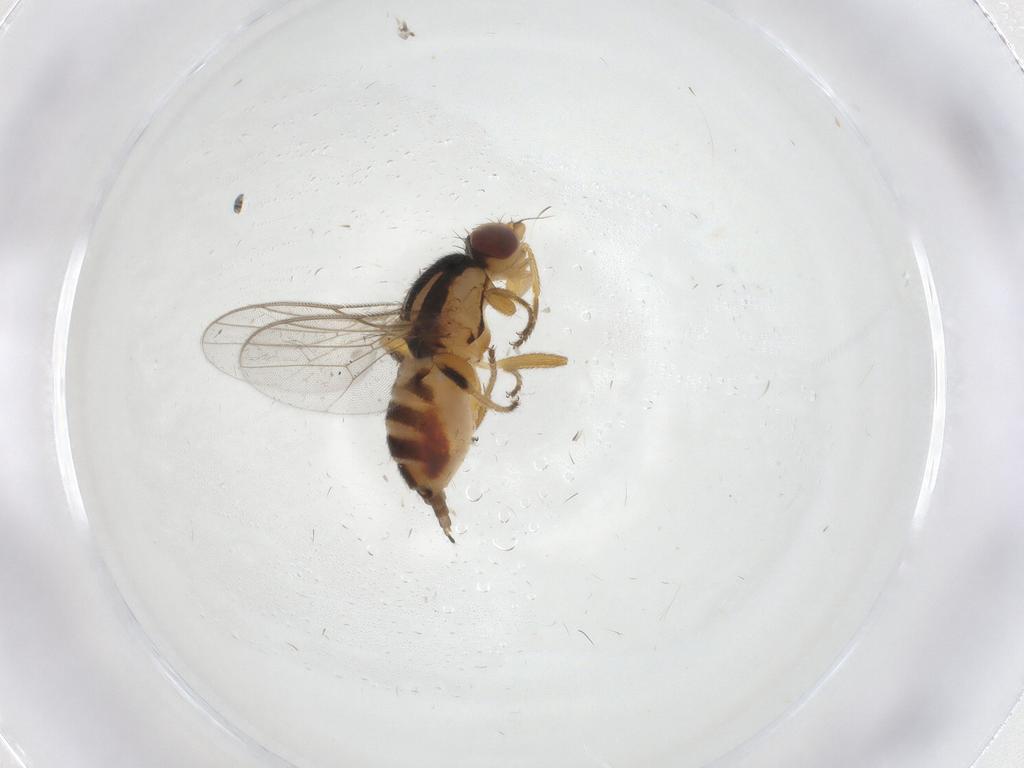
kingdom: Animalia
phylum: Arthropoda
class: Insecta
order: Diptera
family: Chloropidae
